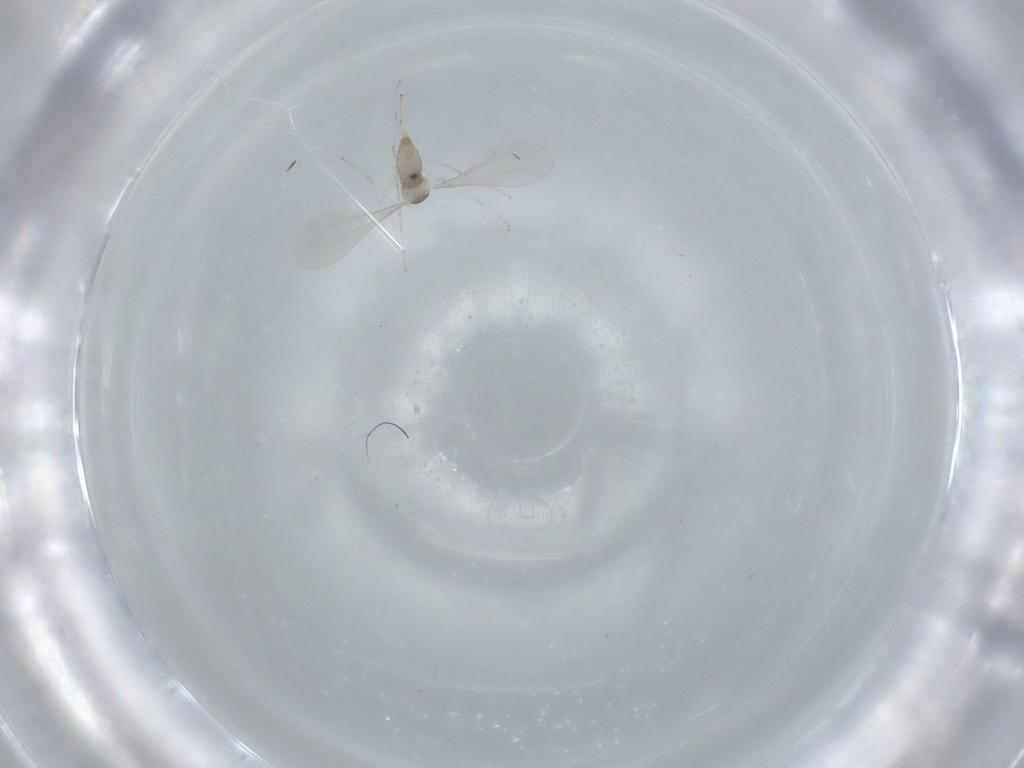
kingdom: Animalia
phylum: Arthropoda
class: Insecta
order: Diptera
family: Cecidomyiidae
